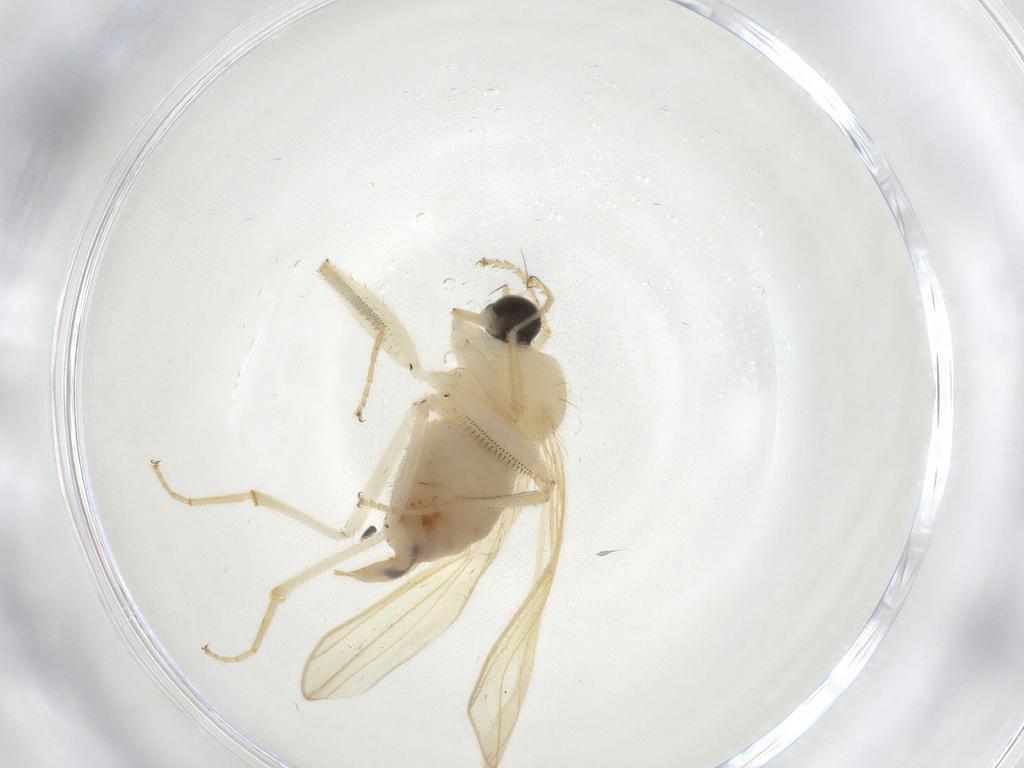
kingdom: Animalia
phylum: Arthropoda
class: Insecta
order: Diptera
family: Hybotidae
